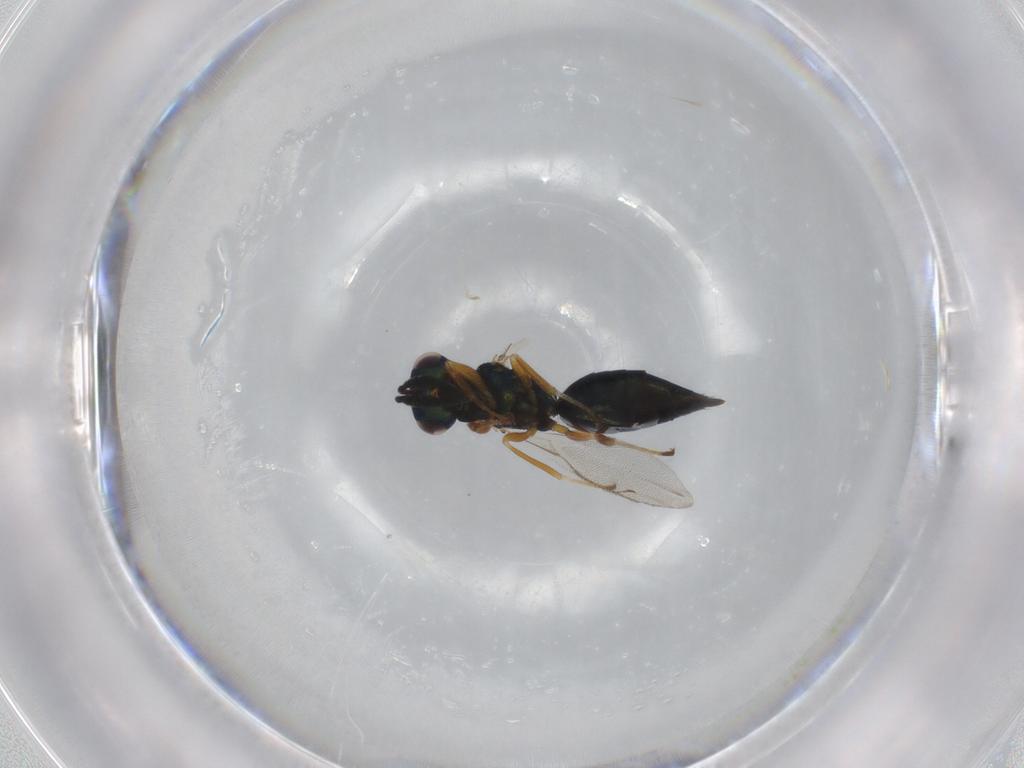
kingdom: Animalia
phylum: Arthropoda
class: Insecta
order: Hymenoptera
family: Pteromalidae
